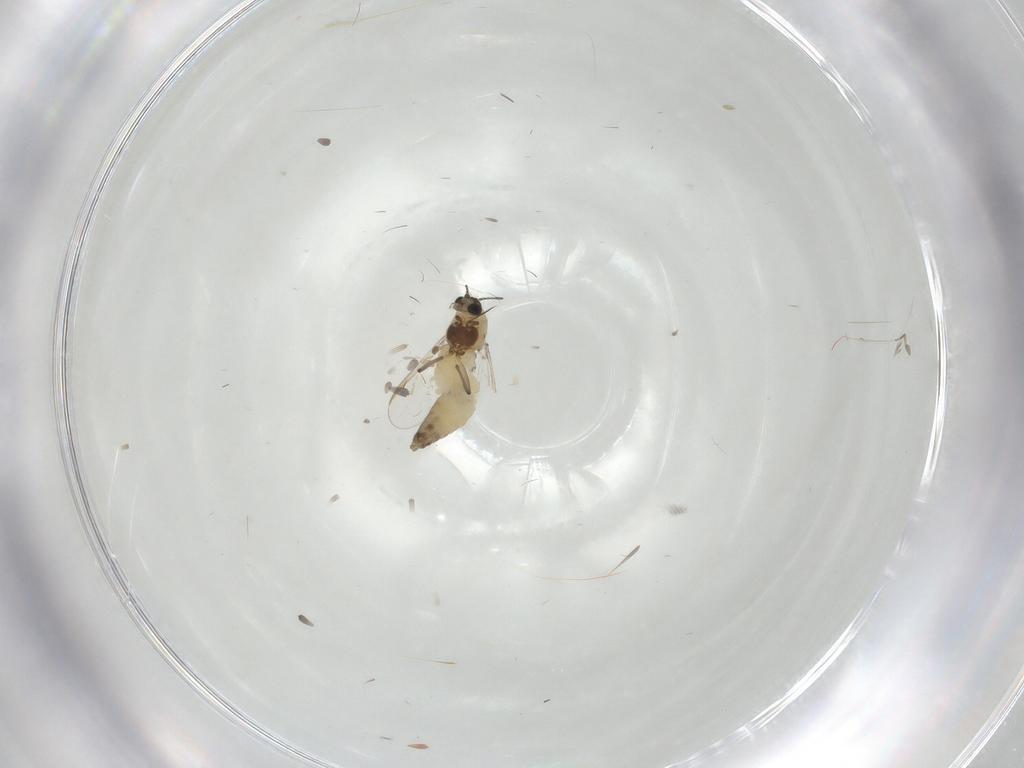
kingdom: Animalia
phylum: Arthropoda
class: Insecta
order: Diptera
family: Chironomidae
